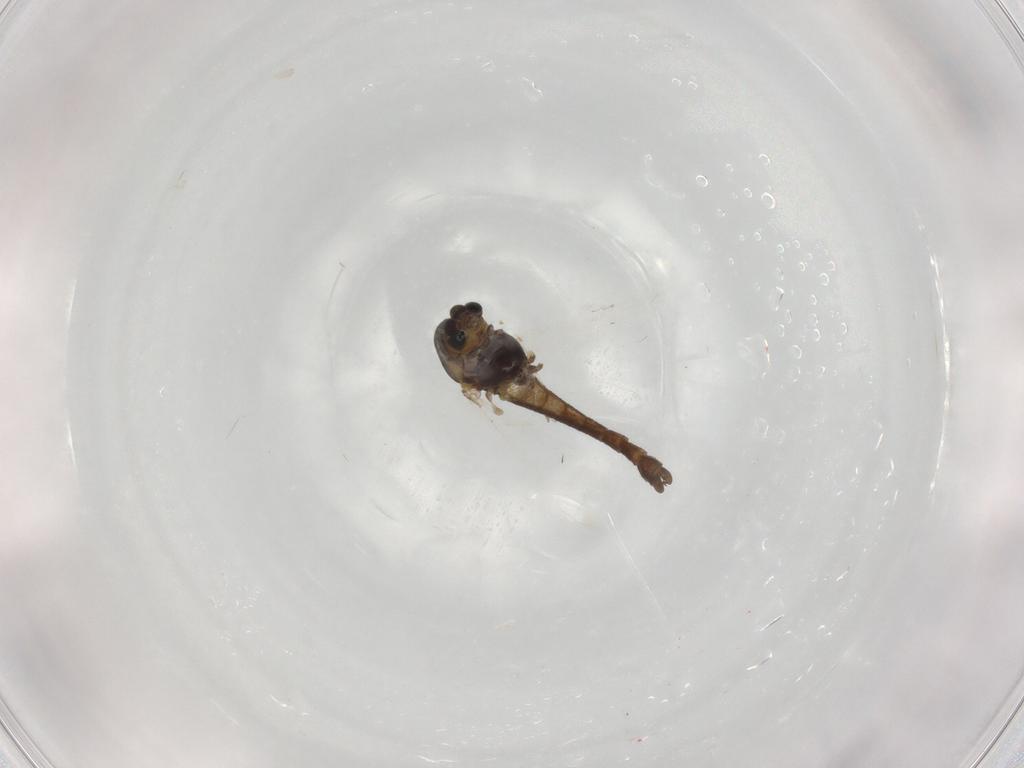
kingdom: Animalia
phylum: Arthropoda
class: Insecta
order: Diptera
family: Chironomidae
